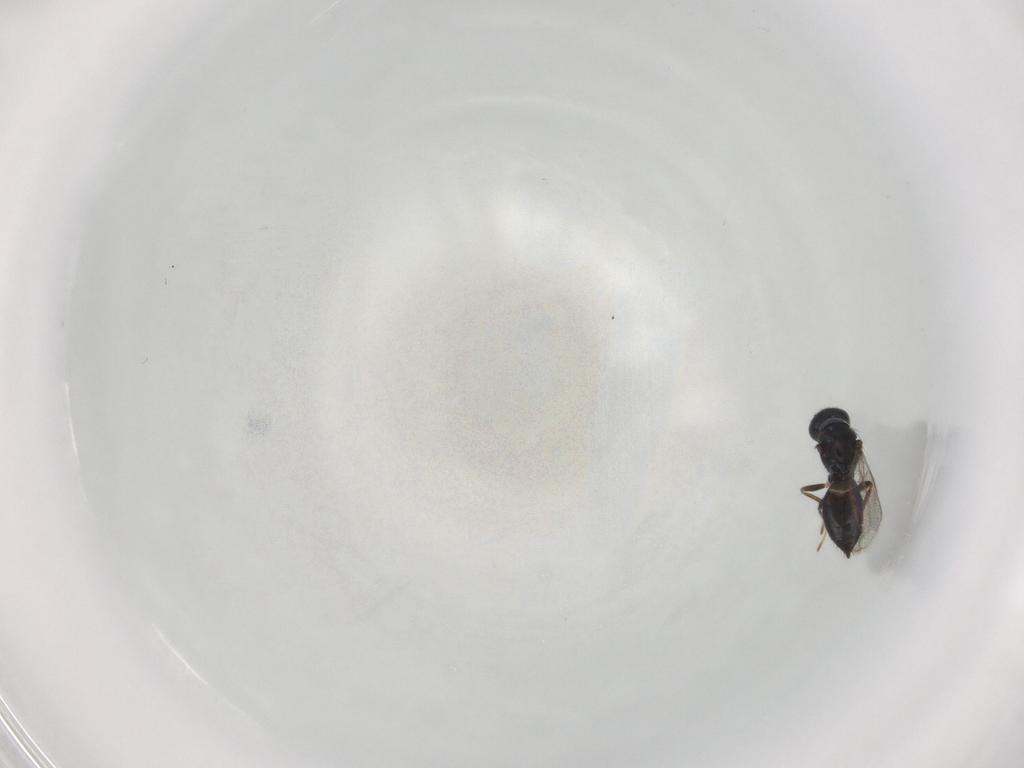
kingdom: Animalia
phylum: Arthropoda
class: Insecta
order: Hymenoptera
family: Eulophidae
